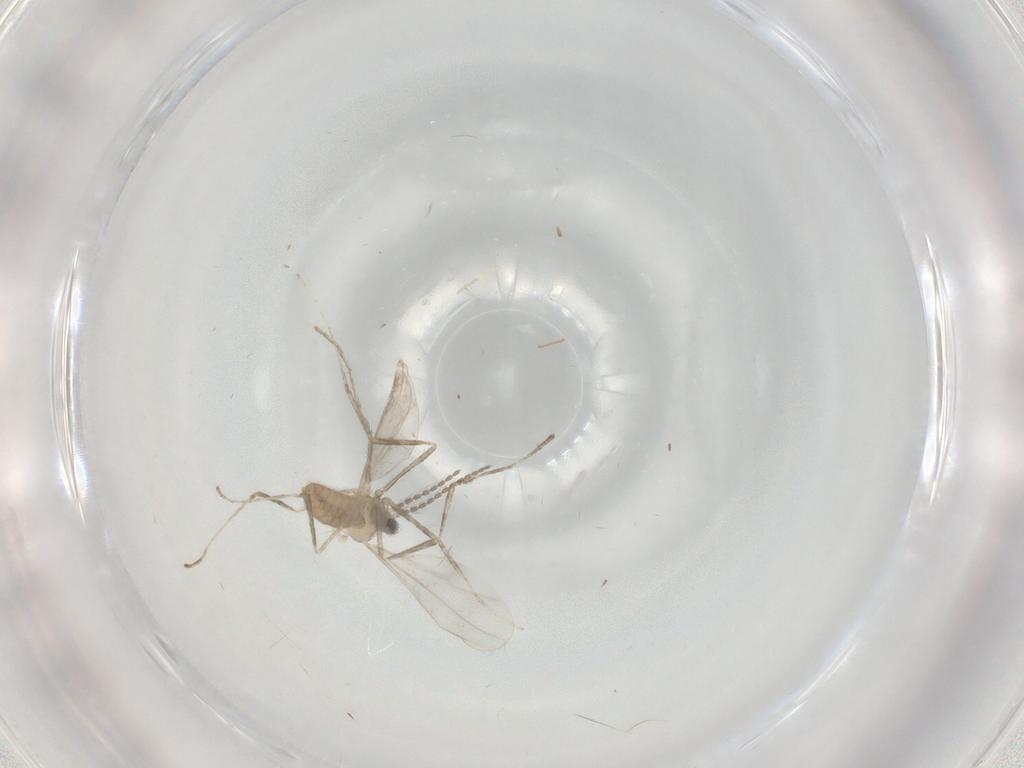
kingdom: Animalia
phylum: Arthropoda
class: Insecta
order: Diptera
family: Cecidomyiidae
